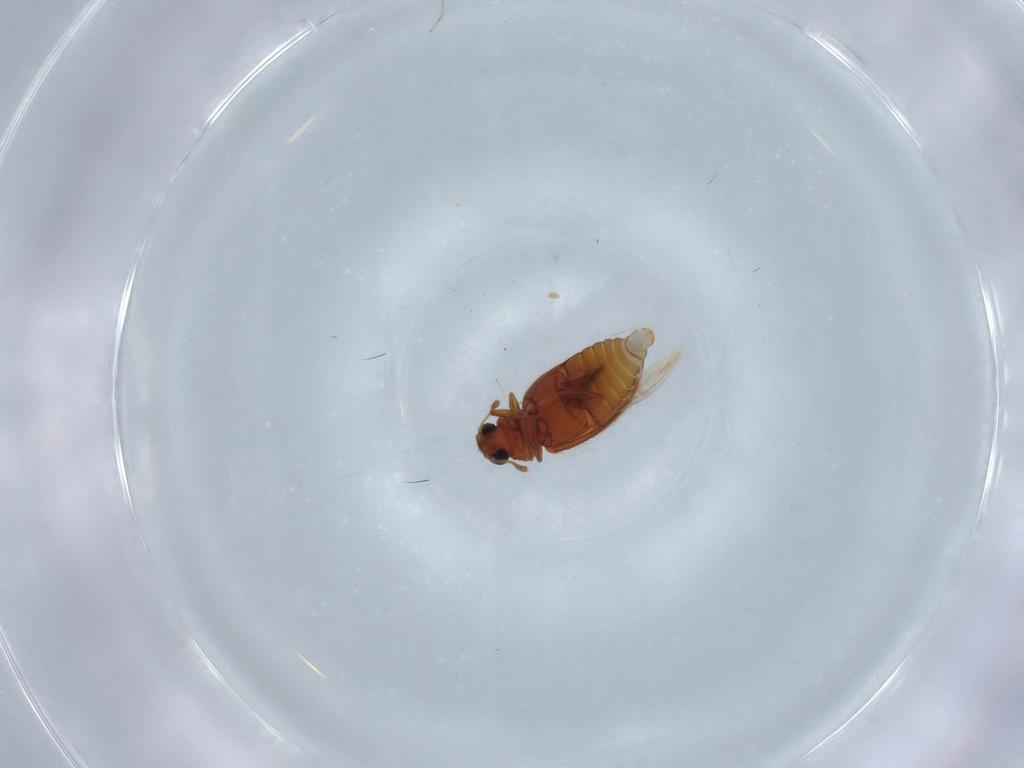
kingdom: Animalia
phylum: Arthropoda
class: Insecta
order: Coleoptera
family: Latridiidae
